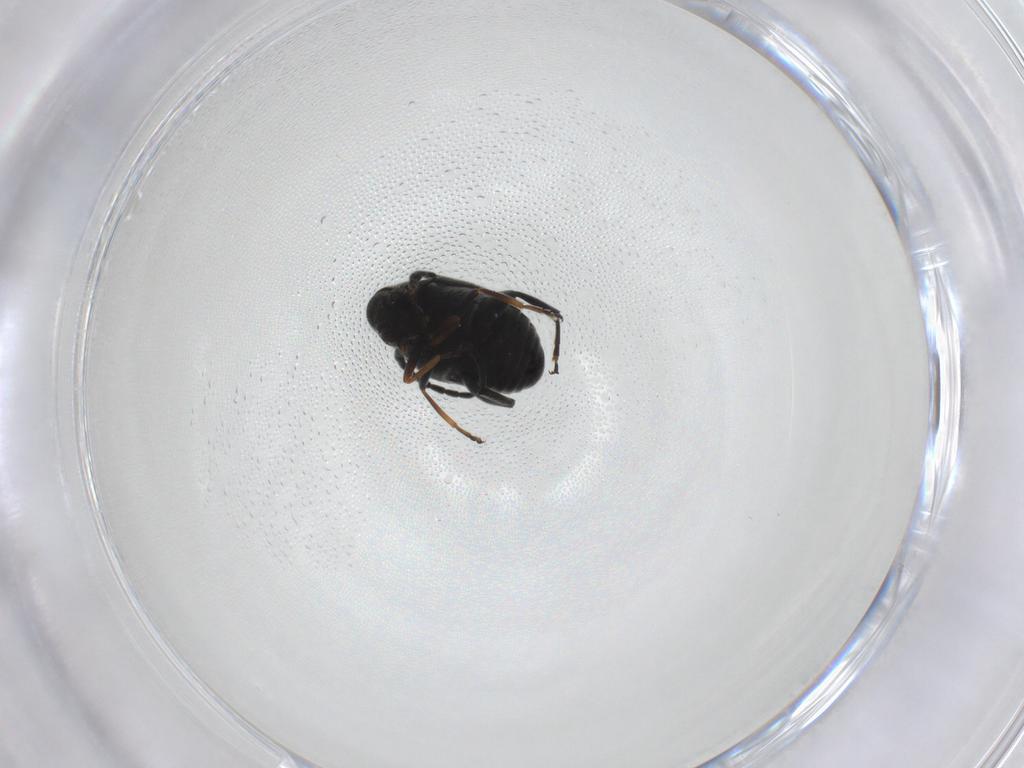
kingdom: Animalia
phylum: Arthropoda
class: Insecta
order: Coleoptera
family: Chrysomelidae
